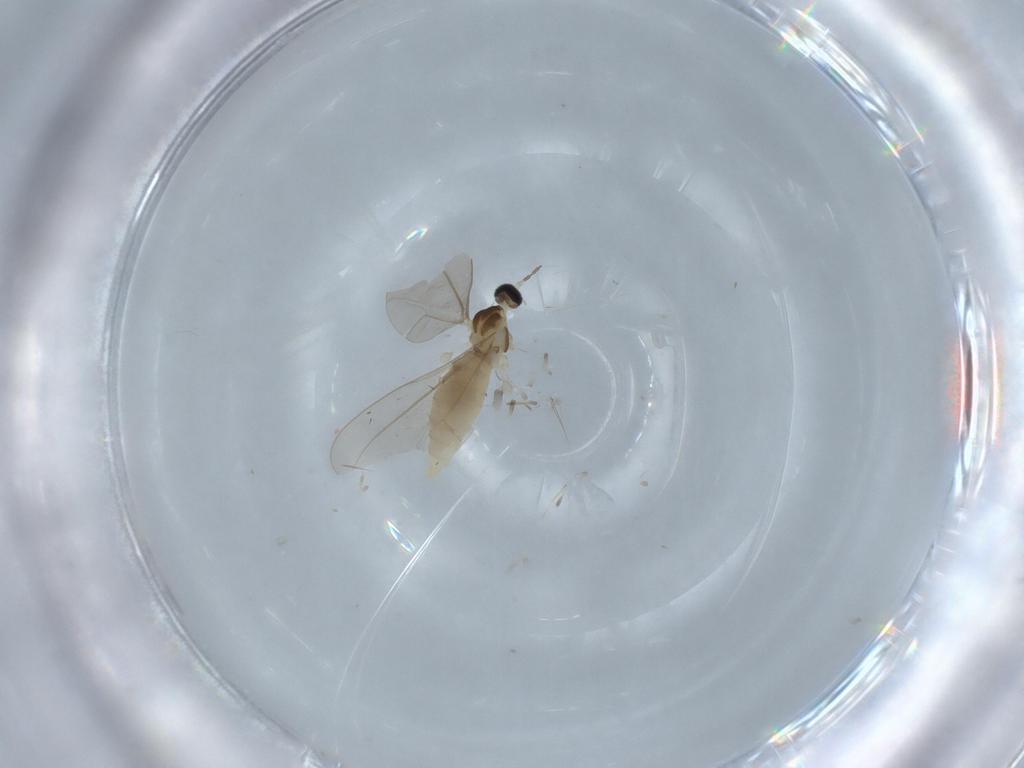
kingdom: Animalia
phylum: Arthropoda
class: Insecta
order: Diptera
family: Cecidomyiidae
